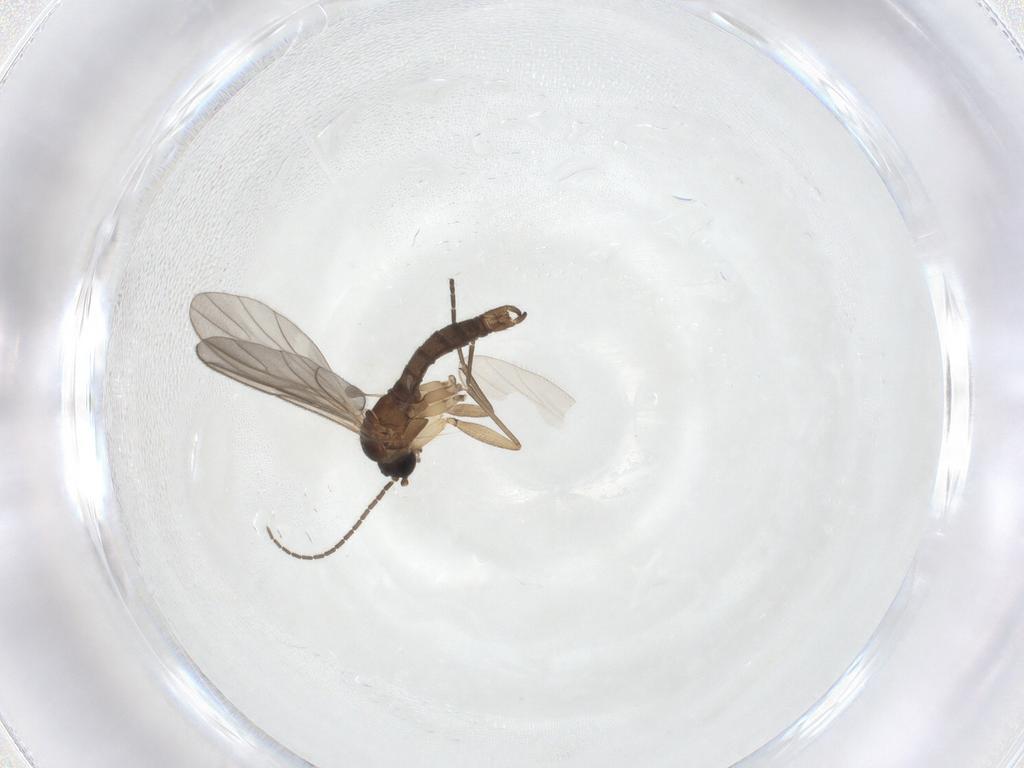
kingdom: Animalia
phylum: Arthropoda
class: Insecta
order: Diptera
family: Sciaridae
